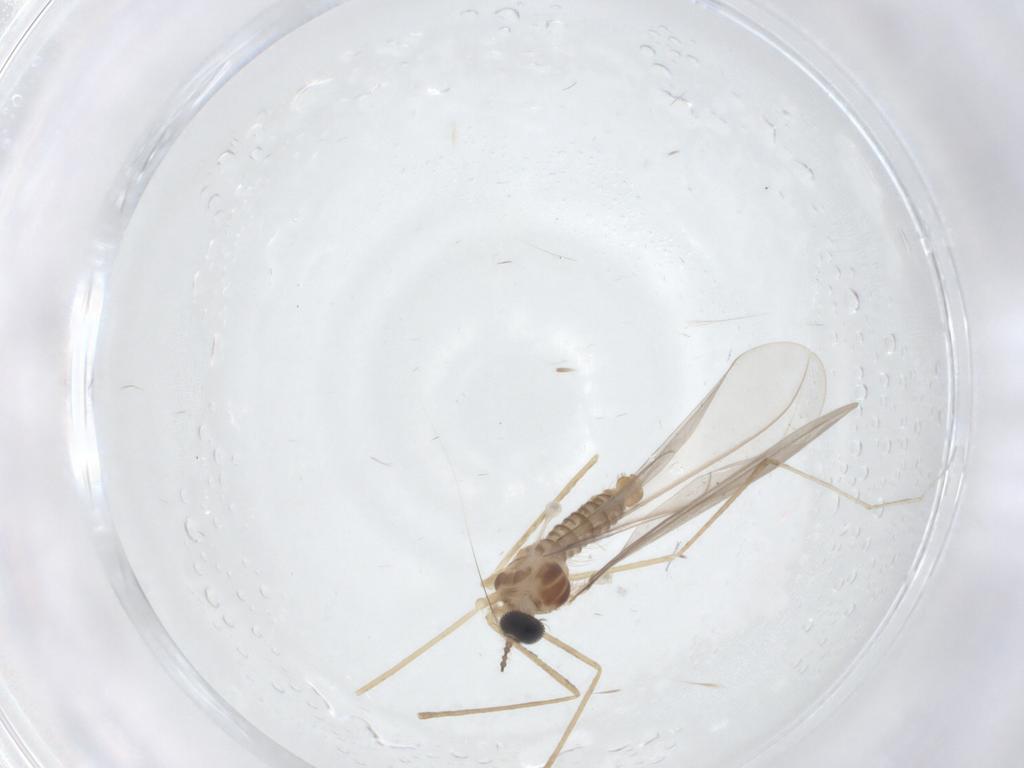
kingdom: Animalia
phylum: Arthropoda
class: Insecta
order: Diptera
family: Cecidomyiidae
